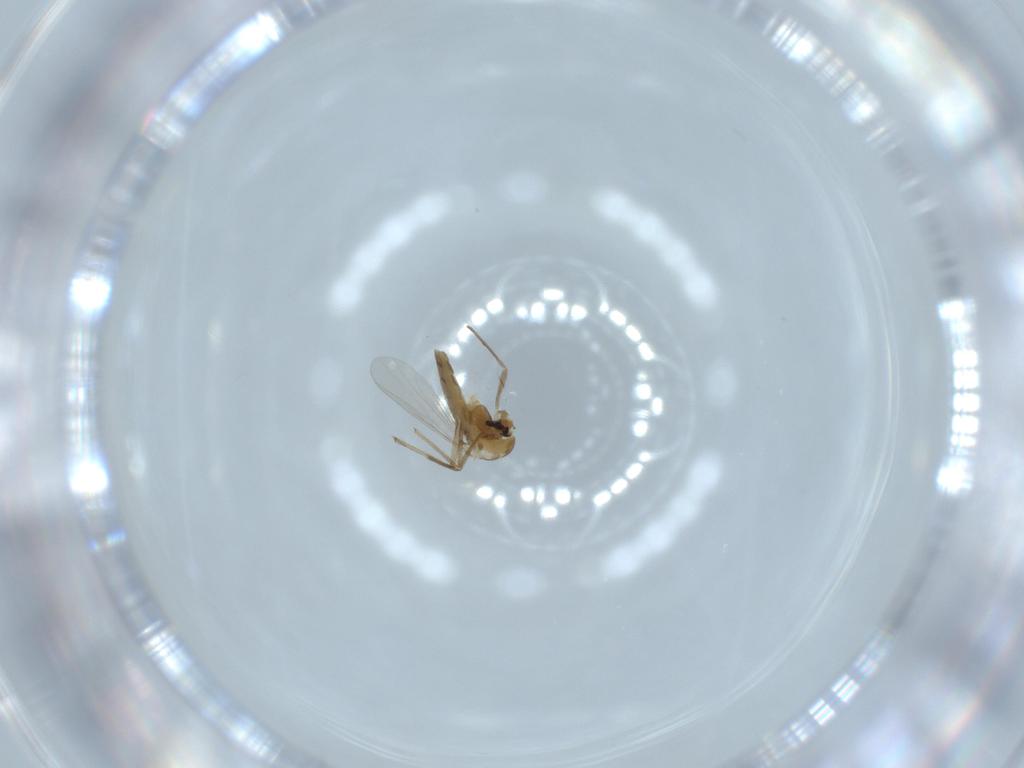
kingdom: Animalia
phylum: Arthropoda
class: Insecta
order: Diptera
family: Phoridae
